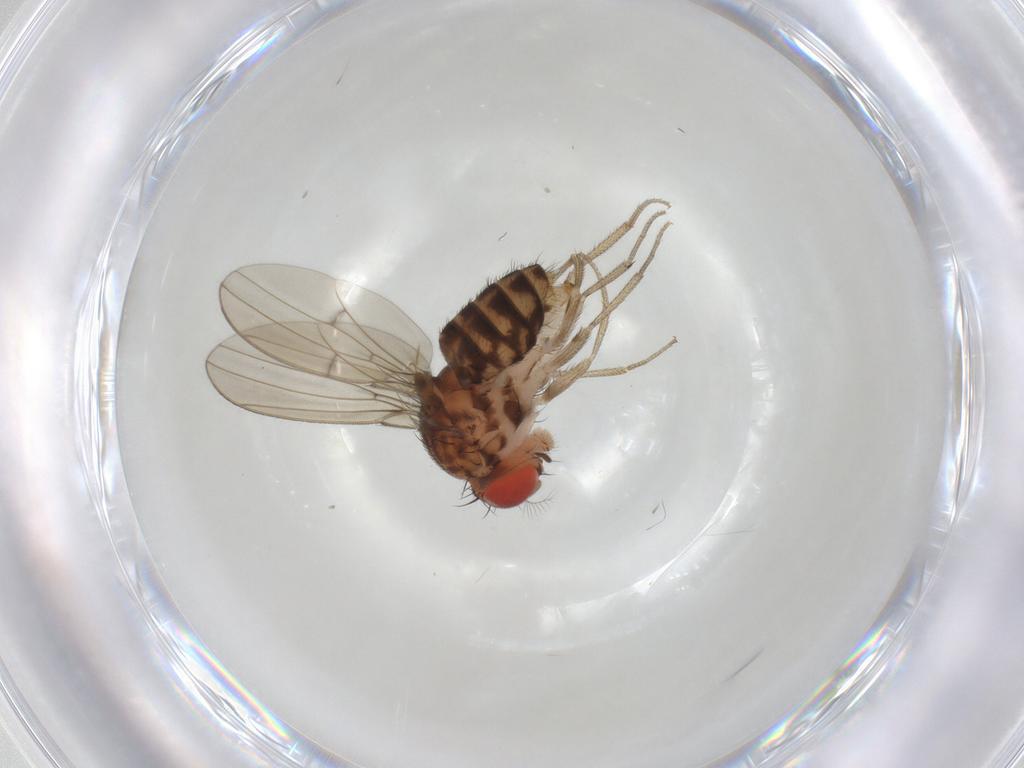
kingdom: Animalia
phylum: Arthropoda
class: Insecta
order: Diptera
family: Drosophilidae
